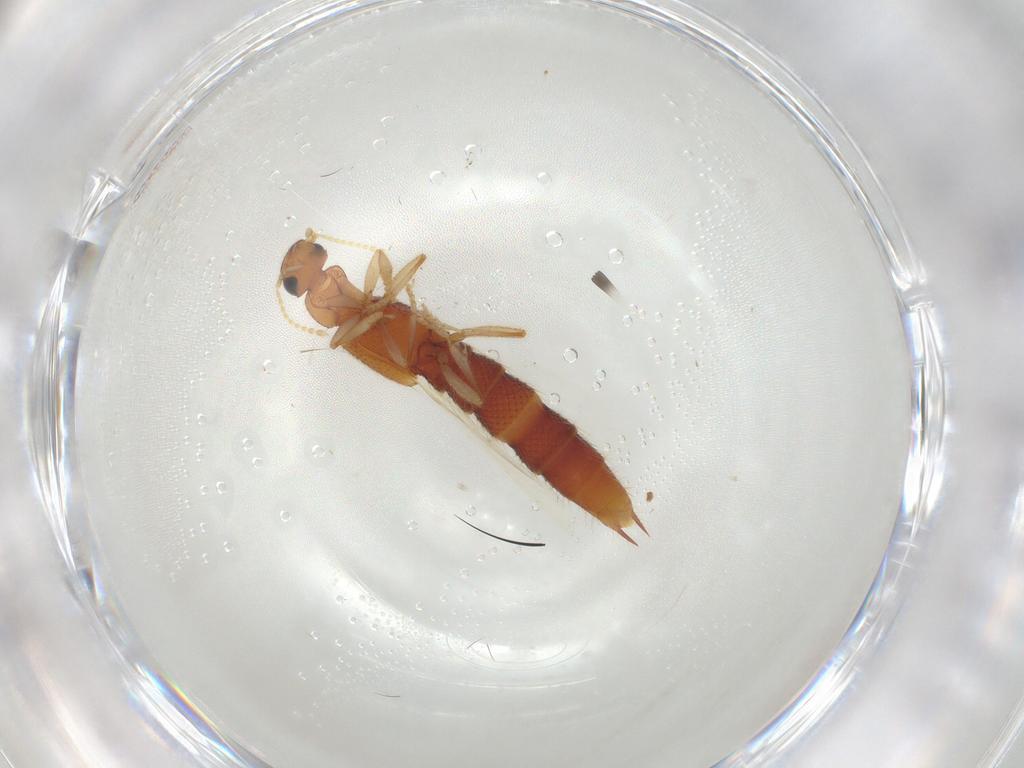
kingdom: Animalia
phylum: Arthropoda
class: Insecta
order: Coleoptera
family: Staphylinidae
